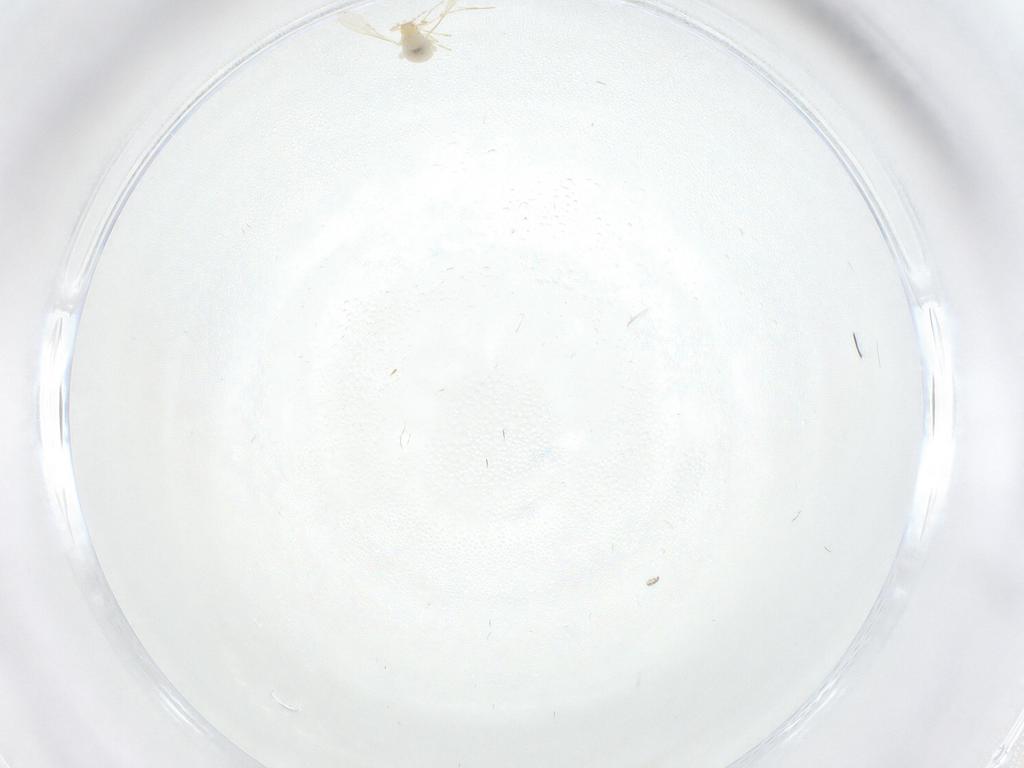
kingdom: Animalia
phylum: Arthropoda
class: Insecta
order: Diptera
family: Cecidomyiidae
